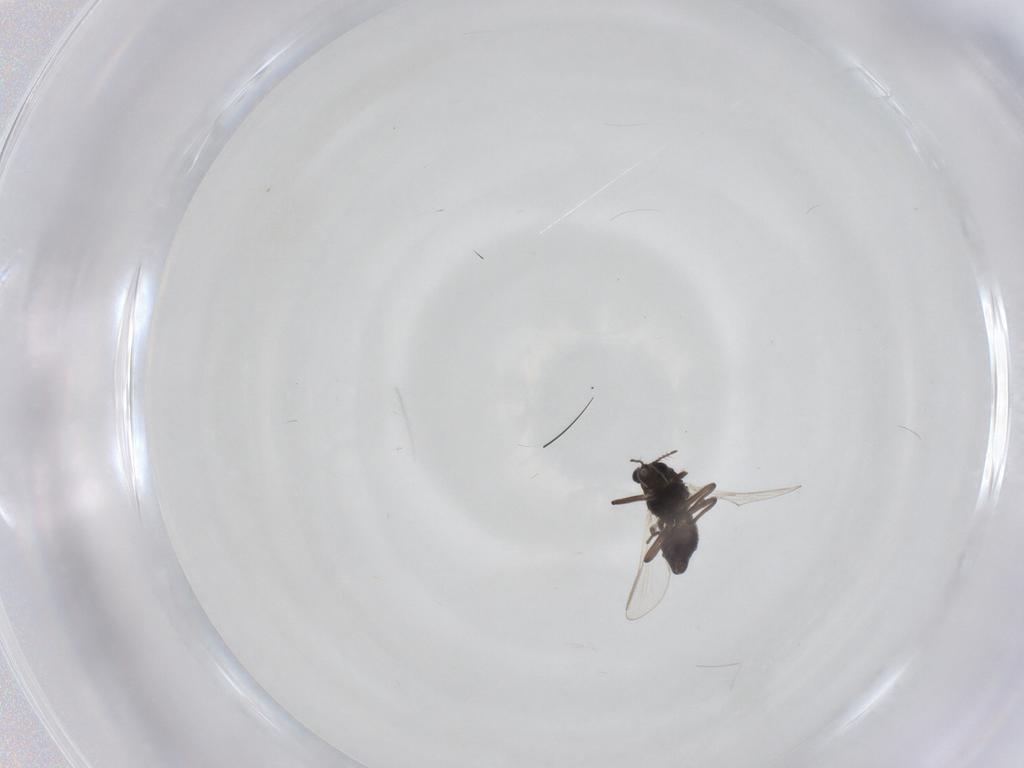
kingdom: Animalia
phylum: Arthropoda
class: Insecta
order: Diptera
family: Chironomidae
